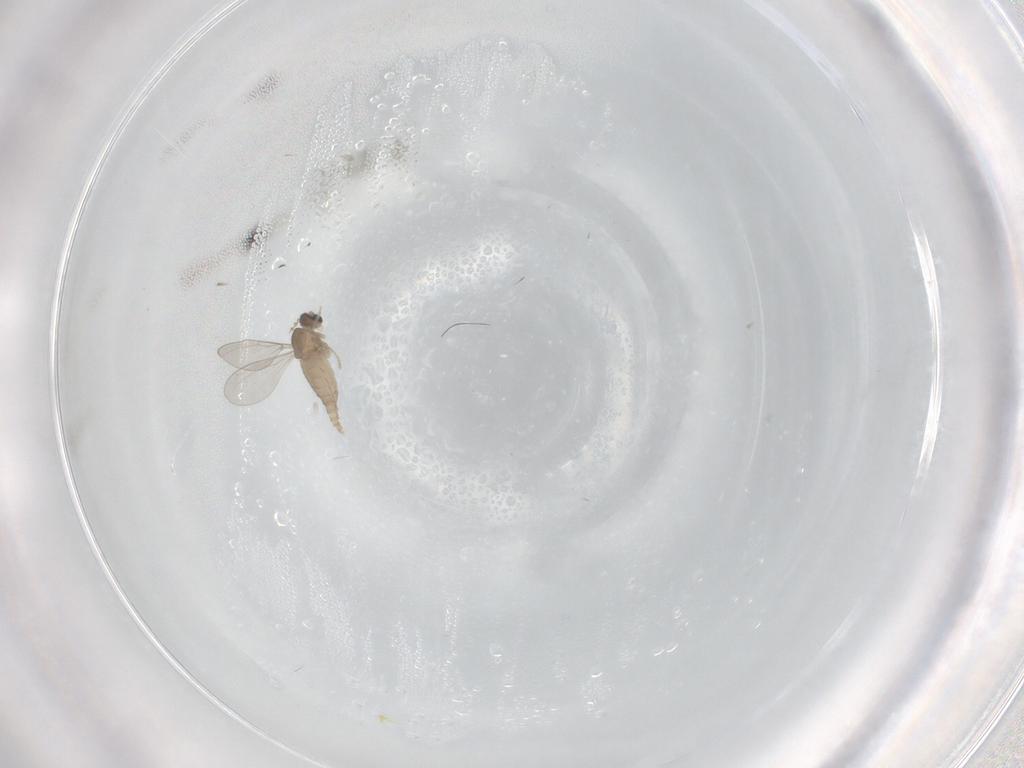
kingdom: Animalia
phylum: Arthropoda
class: Insecta
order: Diptera
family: Cecidomyiidae
